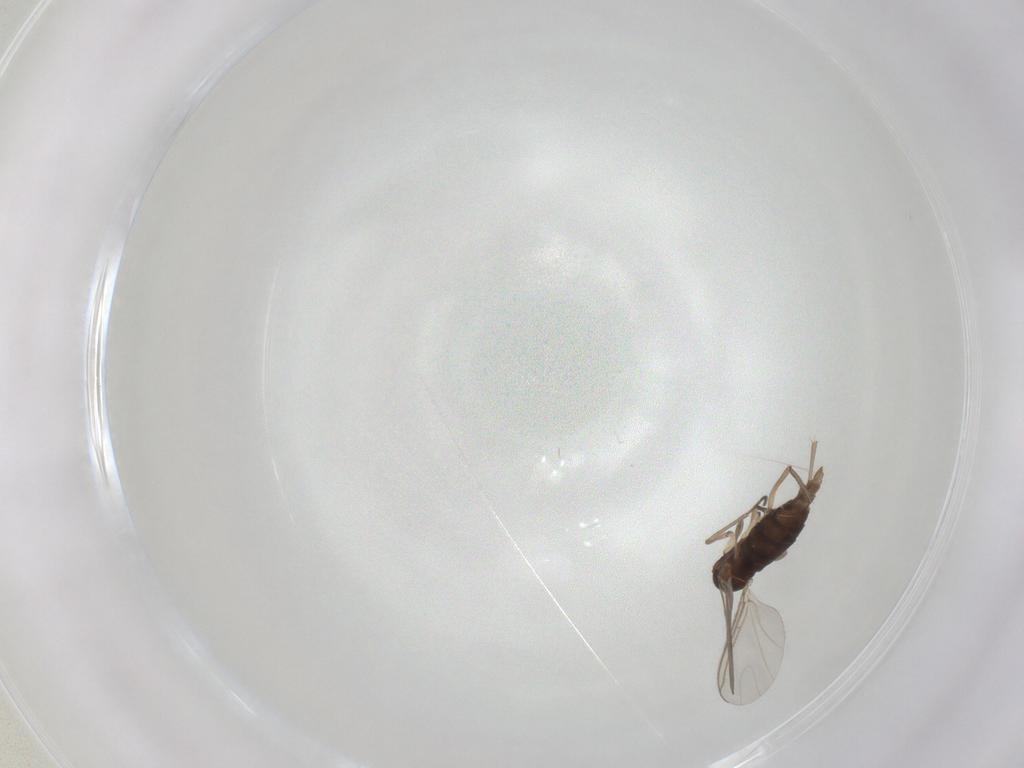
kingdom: Animalia
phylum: Arthropoda
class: Insecta
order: Diptera
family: Sciaridae
